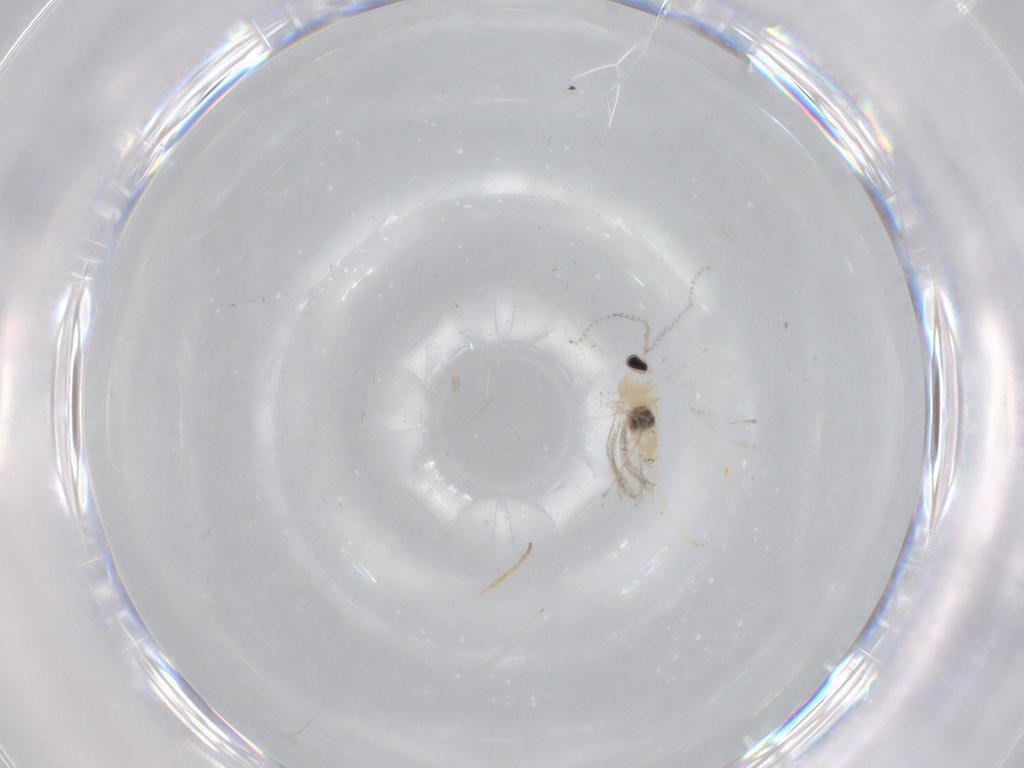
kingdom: Animalia
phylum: Arthropoda
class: Insecta
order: Diptera
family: Cecidomyiidae
